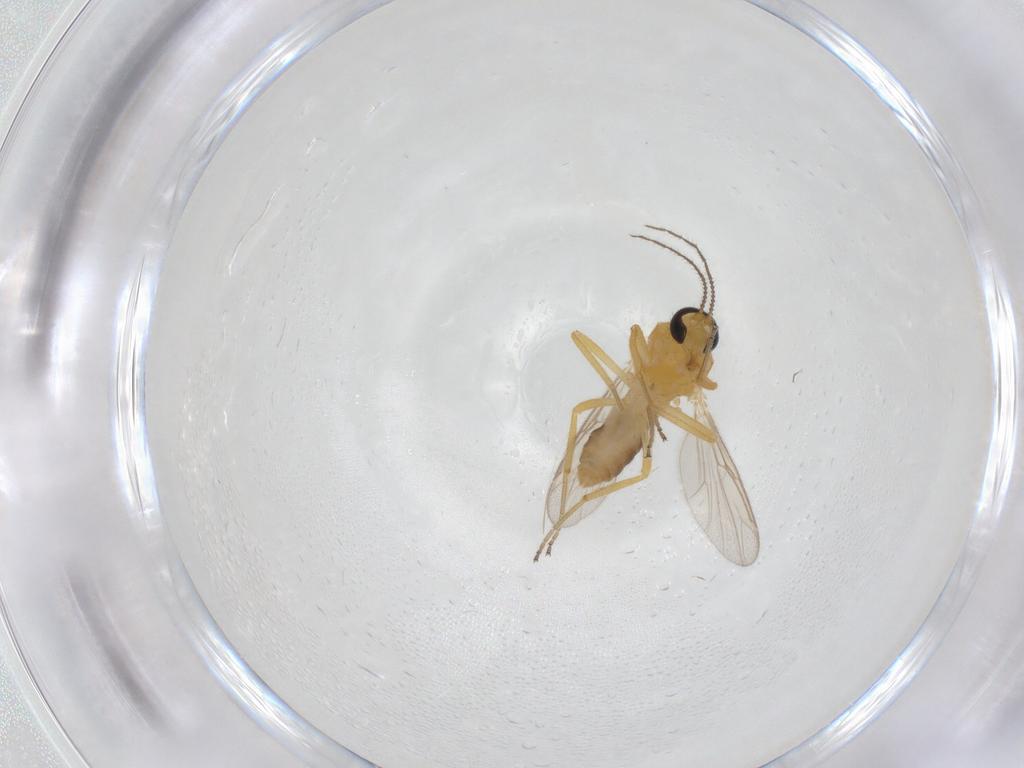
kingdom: Animalia
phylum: Arthropoda
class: Insecta
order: Diptera
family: Ceratopogonidae
